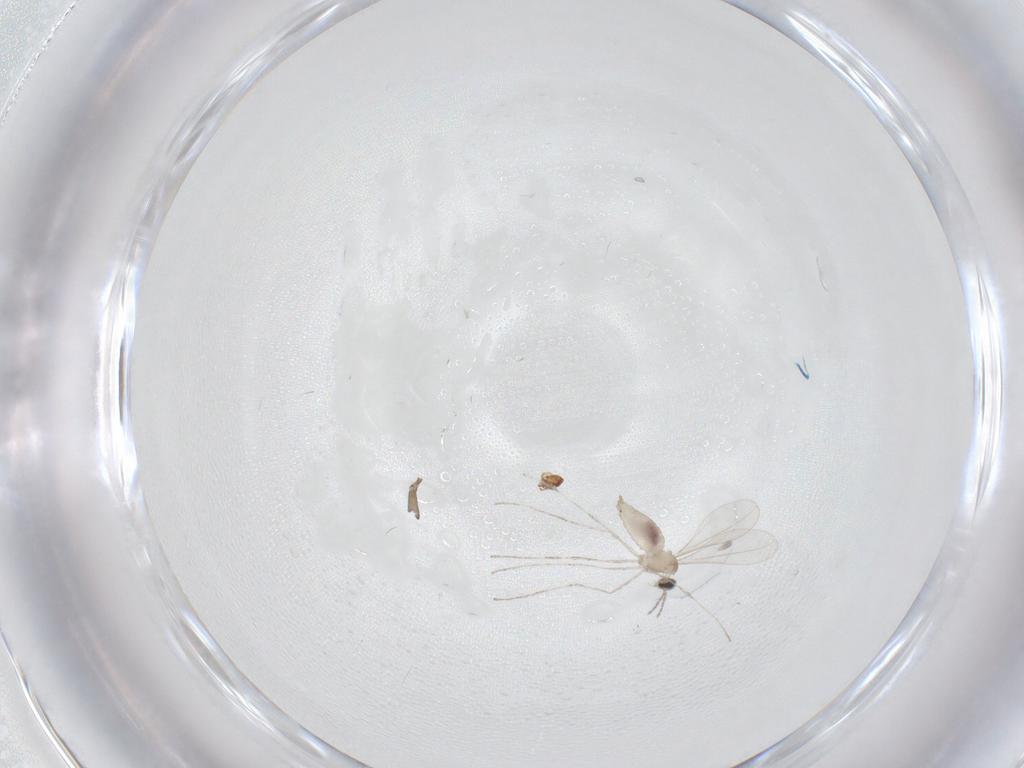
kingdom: Animalia
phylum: Arthropoda
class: Insecta
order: Diptera
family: Cecidomyiidae
